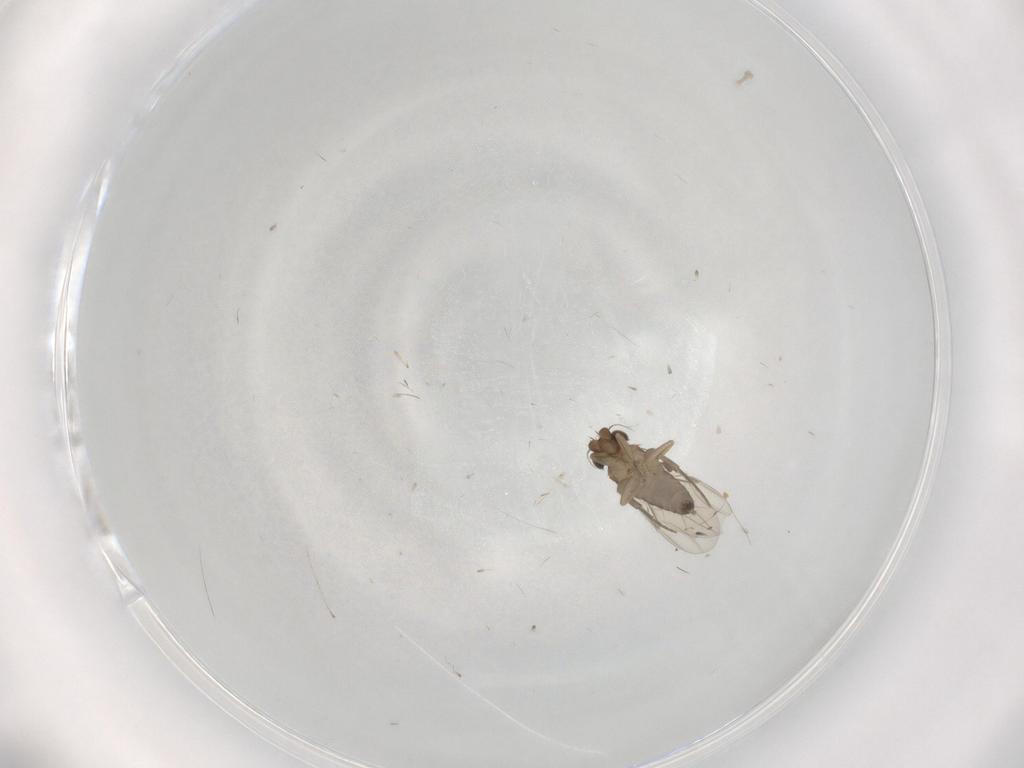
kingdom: Animalia
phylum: Arthropoda
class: Insecta
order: Diptera
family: Phoridae
